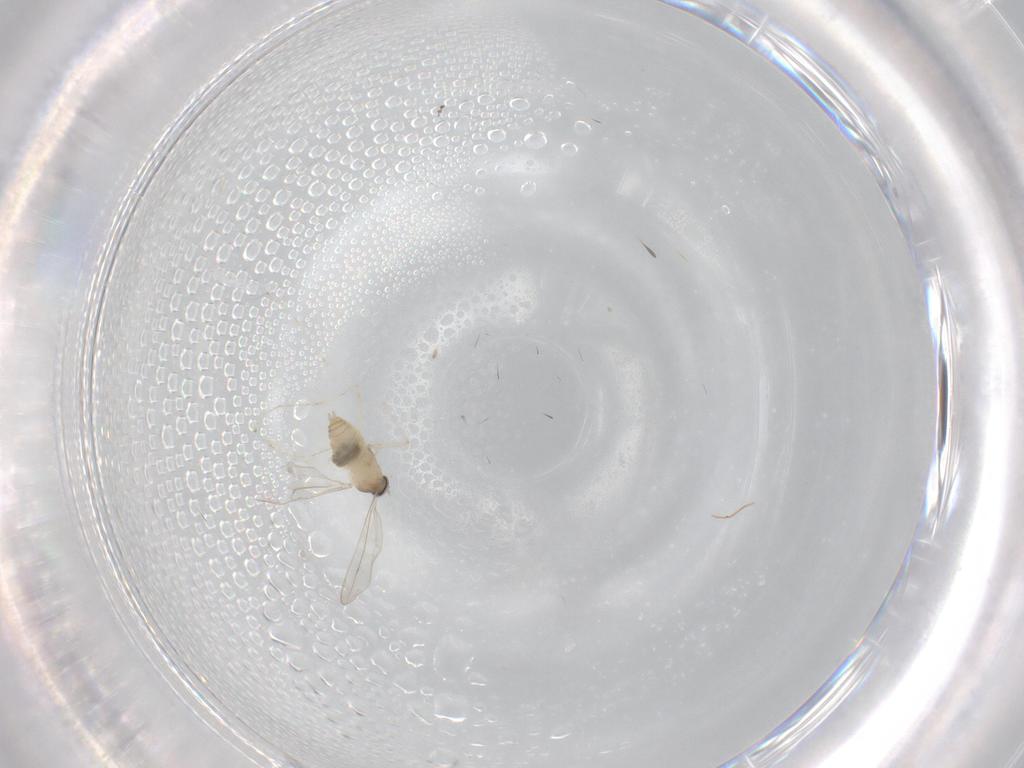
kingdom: Animalia
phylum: Arthropoda
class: Insecta
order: Diptera
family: Cecidomyiidae
